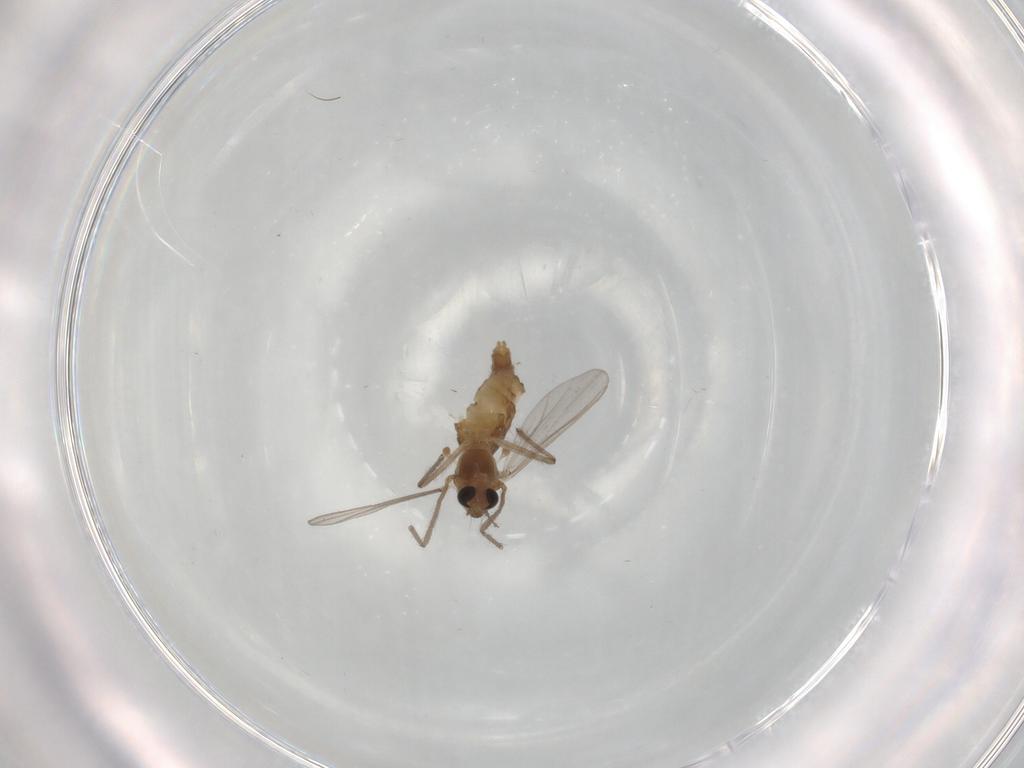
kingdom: Animalia
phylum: Arthropoda
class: Insecta
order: Diptera
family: Chironomidae
